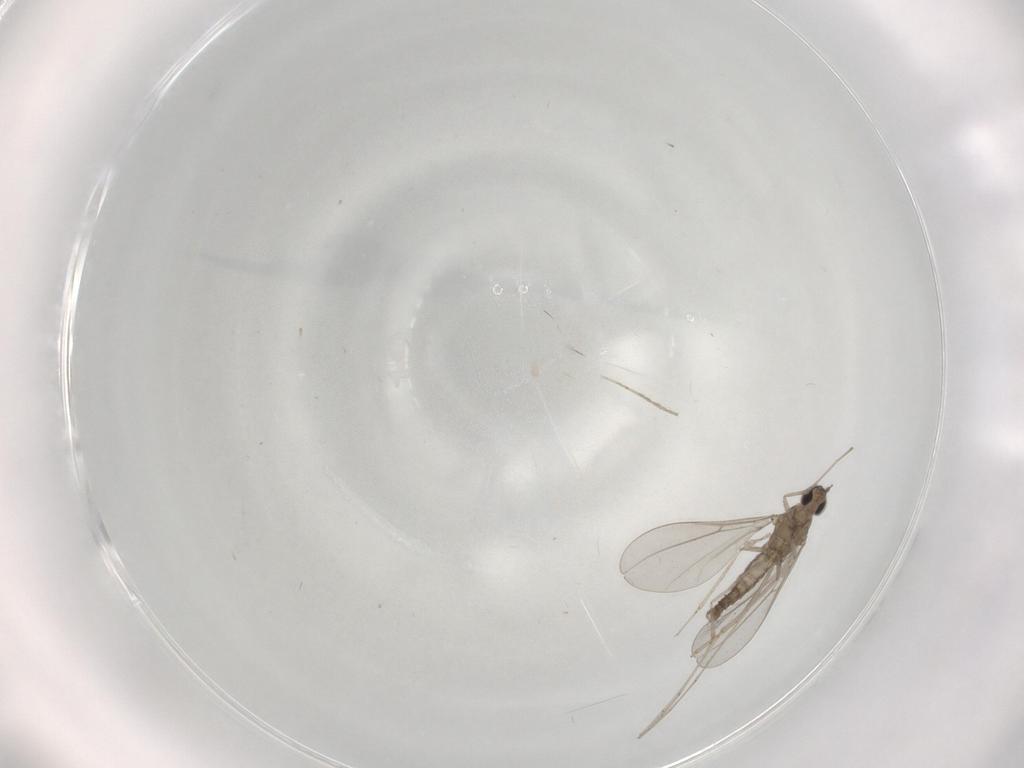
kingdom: Animalia
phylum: Arthropoda
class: Insecta
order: Diptera
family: Cecidomyiidae
